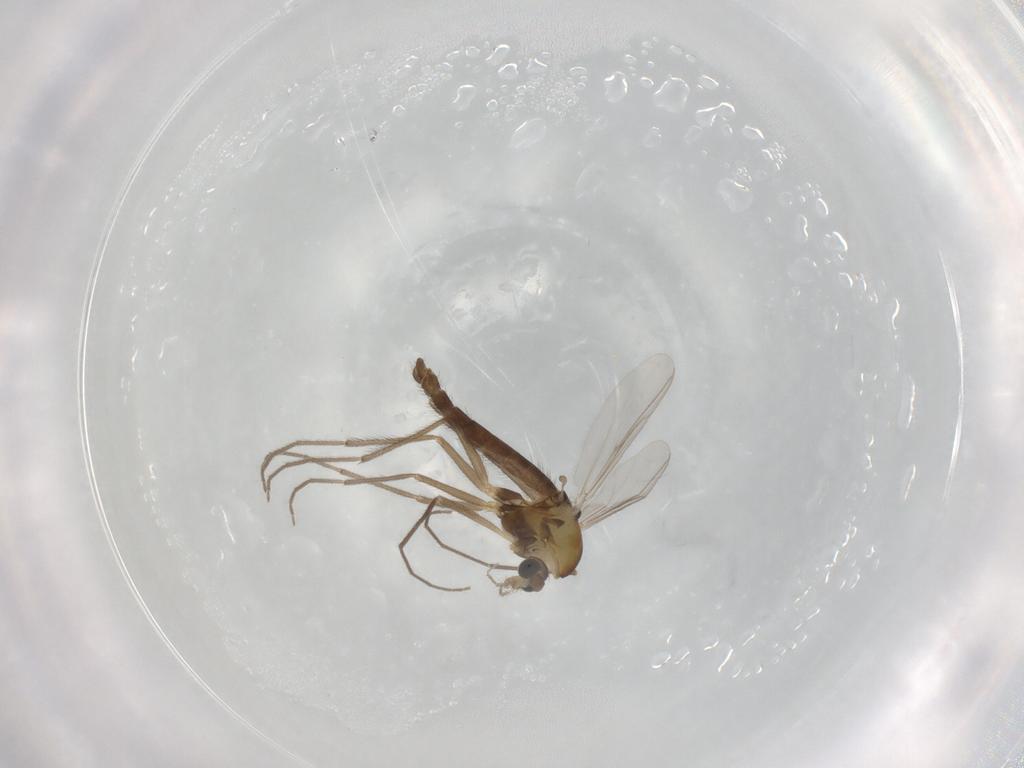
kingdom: Animalia
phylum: Arthropoda
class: Insecta
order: Diptera
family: Chironomidae
